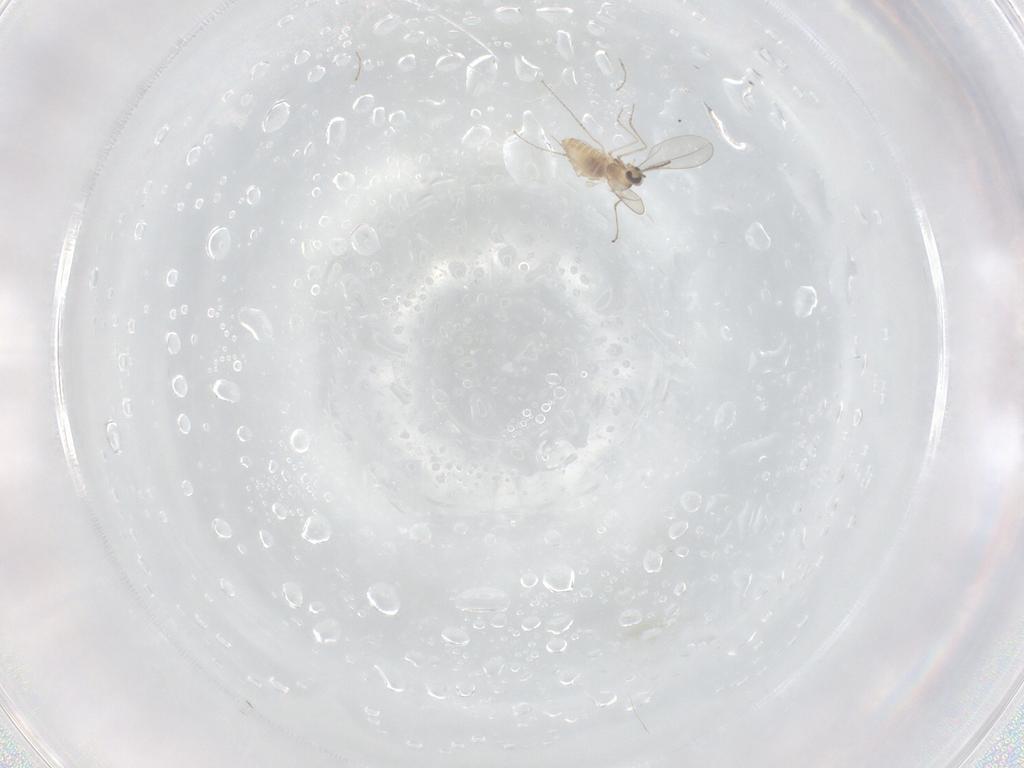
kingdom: Animalia
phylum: Arthropoda
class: Insecta
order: Diptera
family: Cecidomyiidae
